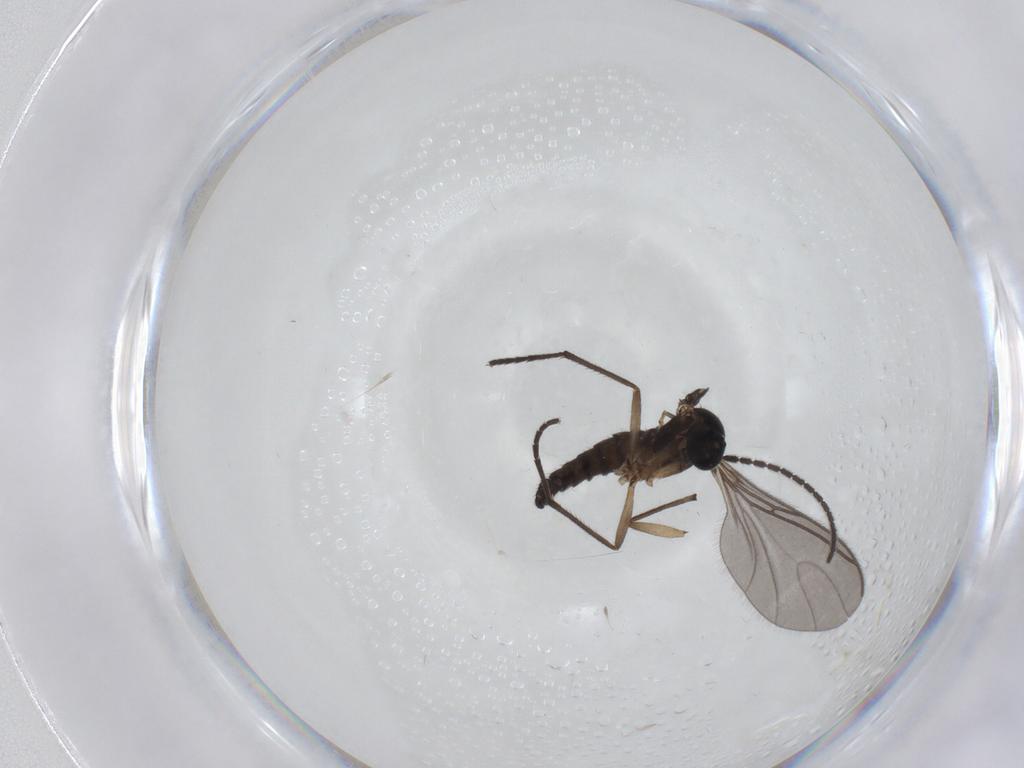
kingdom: Animalia
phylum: Arthropoda
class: Insecta
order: Diptera
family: Sciaridae
